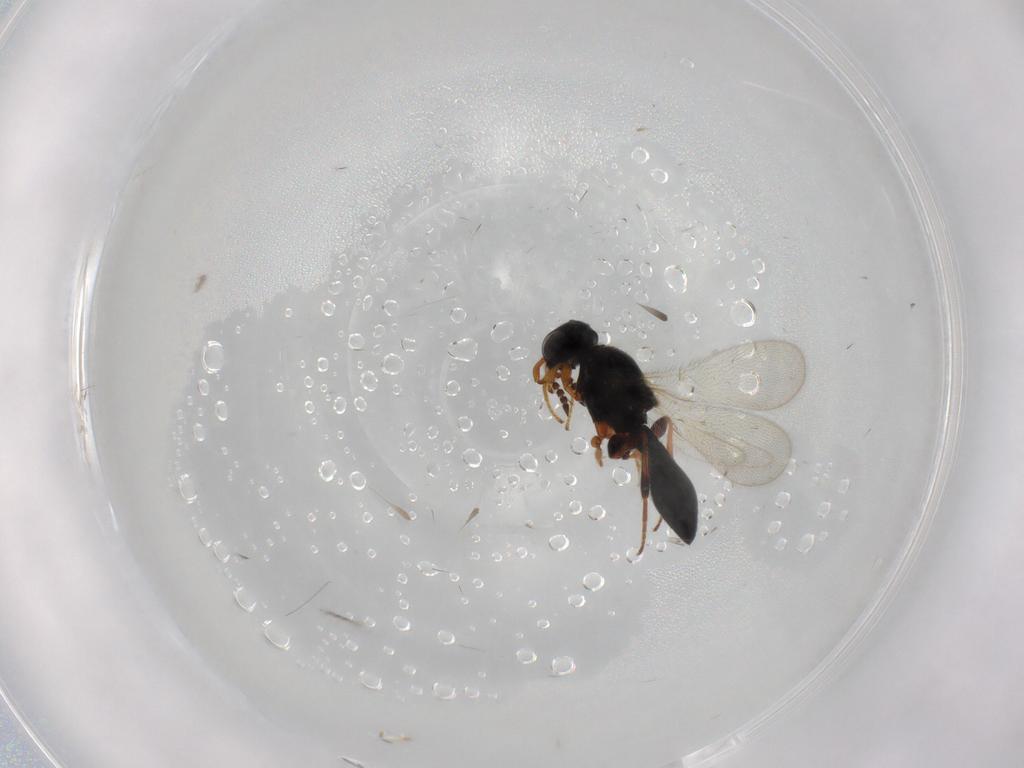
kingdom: Animalia
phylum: Arthropoda
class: Insecta
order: Hymenoptera
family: Platygastridae
